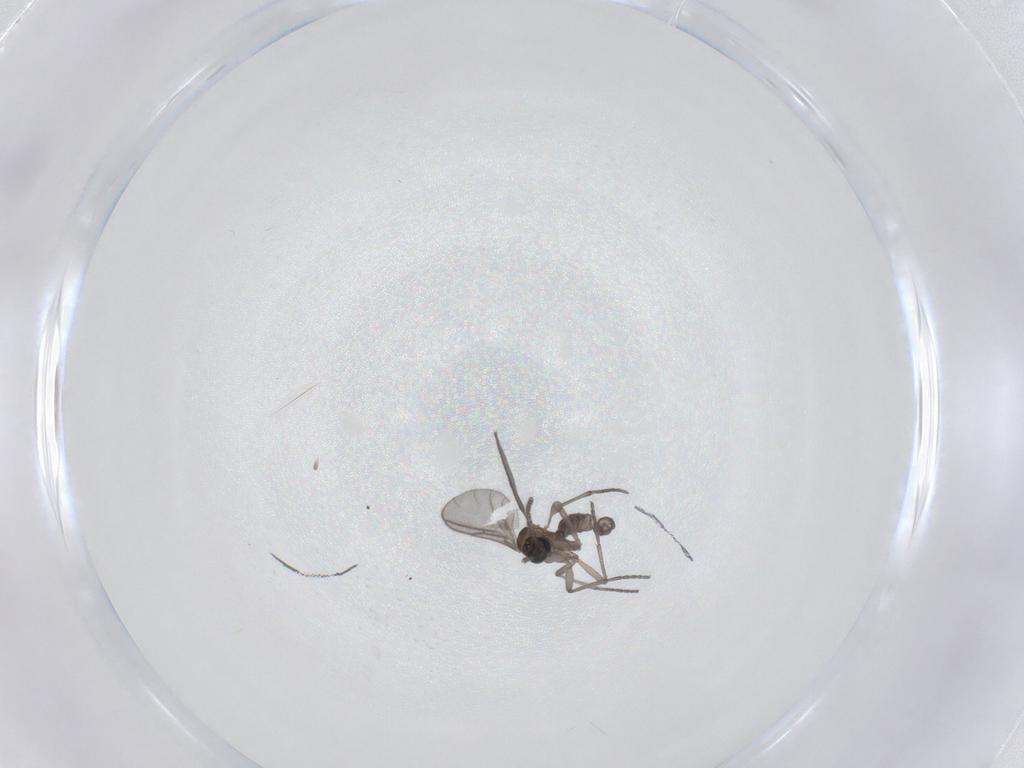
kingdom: Animalia
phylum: Arthropoda
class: Insecta
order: Diptera
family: Sciaridae
